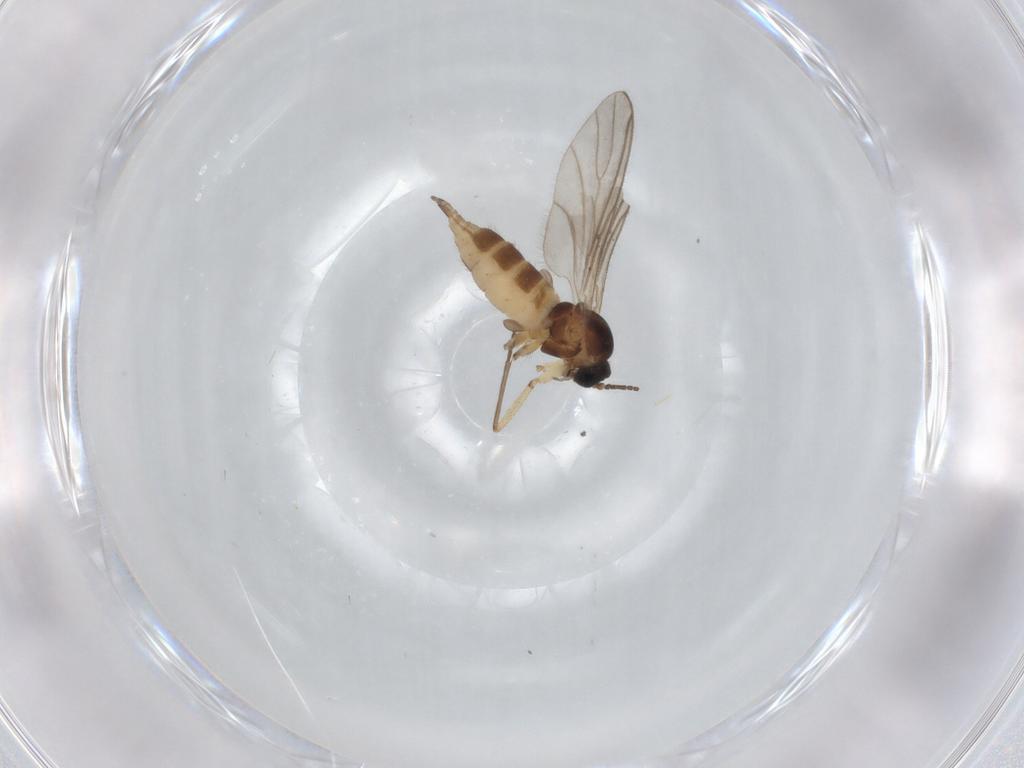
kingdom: Animalia
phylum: Arthropoda
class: Insecta
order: Diptera
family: Sciaridae
